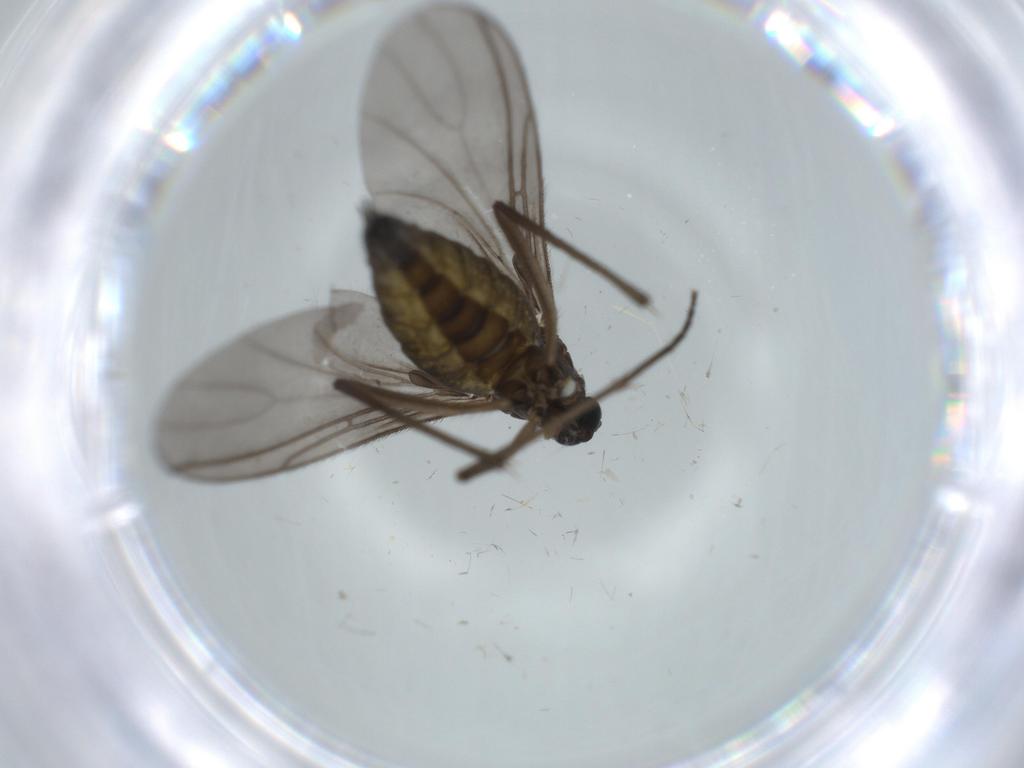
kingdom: Animalia
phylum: Arthropoda
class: Insecta
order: Diptera
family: Sciaridae
